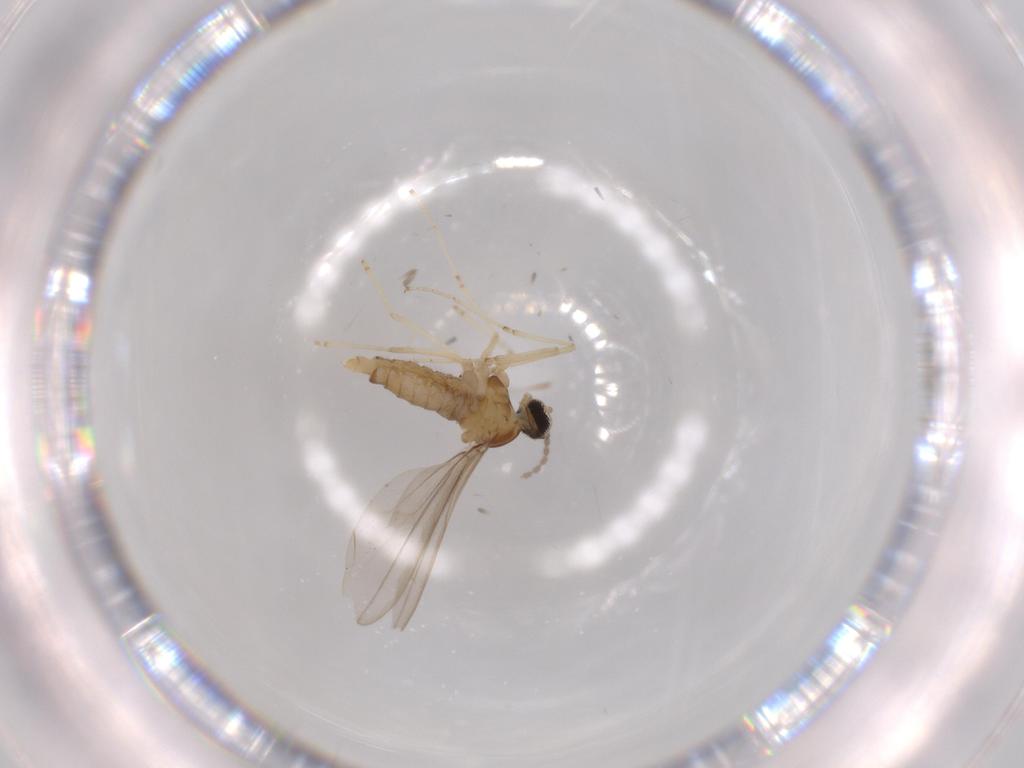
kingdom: Animalia
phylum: Arthropoda
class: Insecta
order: Diptera
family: Cecidomyiidae
